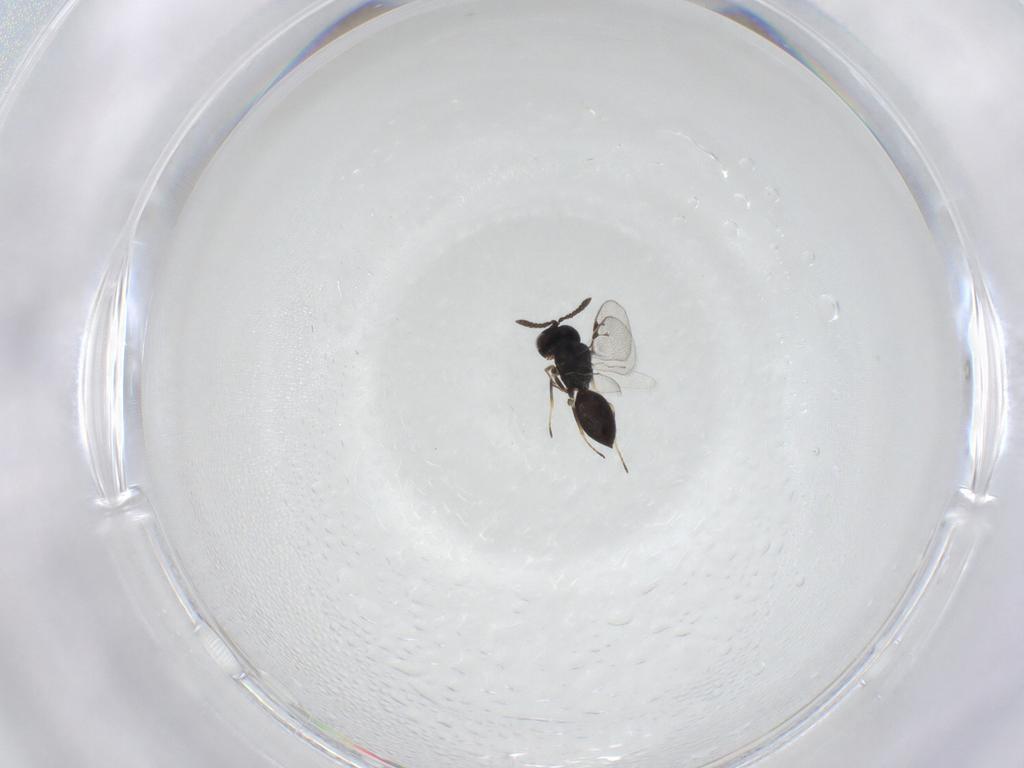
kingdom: Animalia
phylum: Arthropoda
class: Insecta
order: Hymenoptera
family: Pteromalidae
